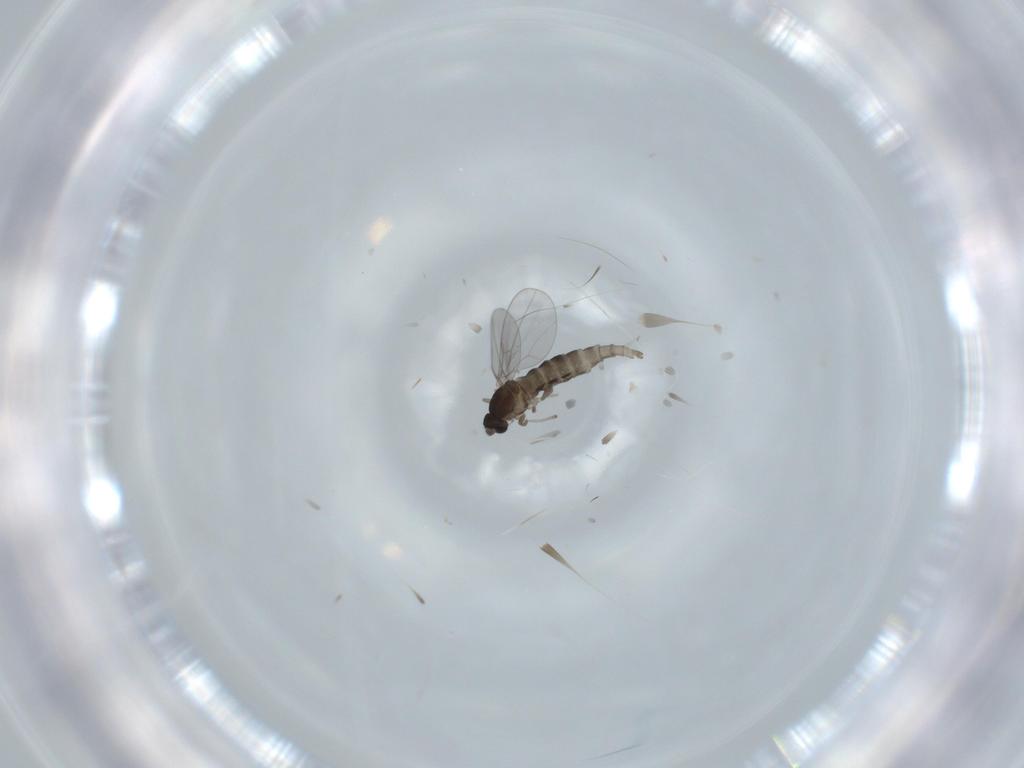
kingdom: Animalia
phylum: Arthropoda
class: Insecta
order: Diptera
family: Cecidomyiidae
